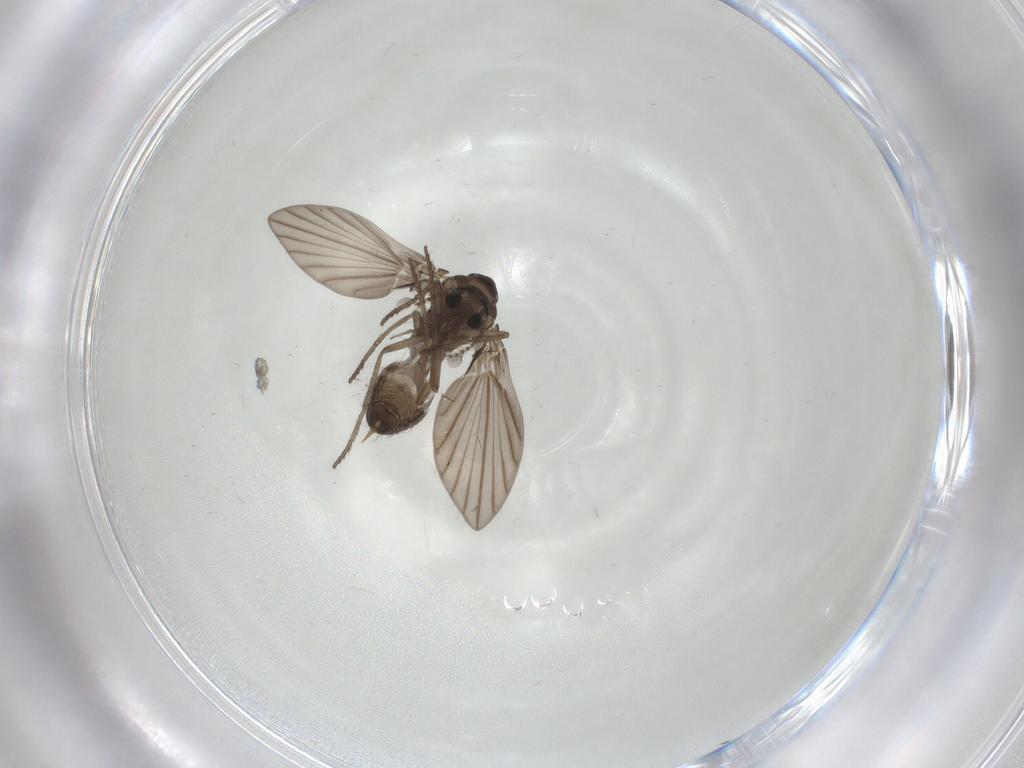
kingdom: Animalia
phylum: Arthropoda
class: Insecta
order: Diptera
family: Psychodidae
